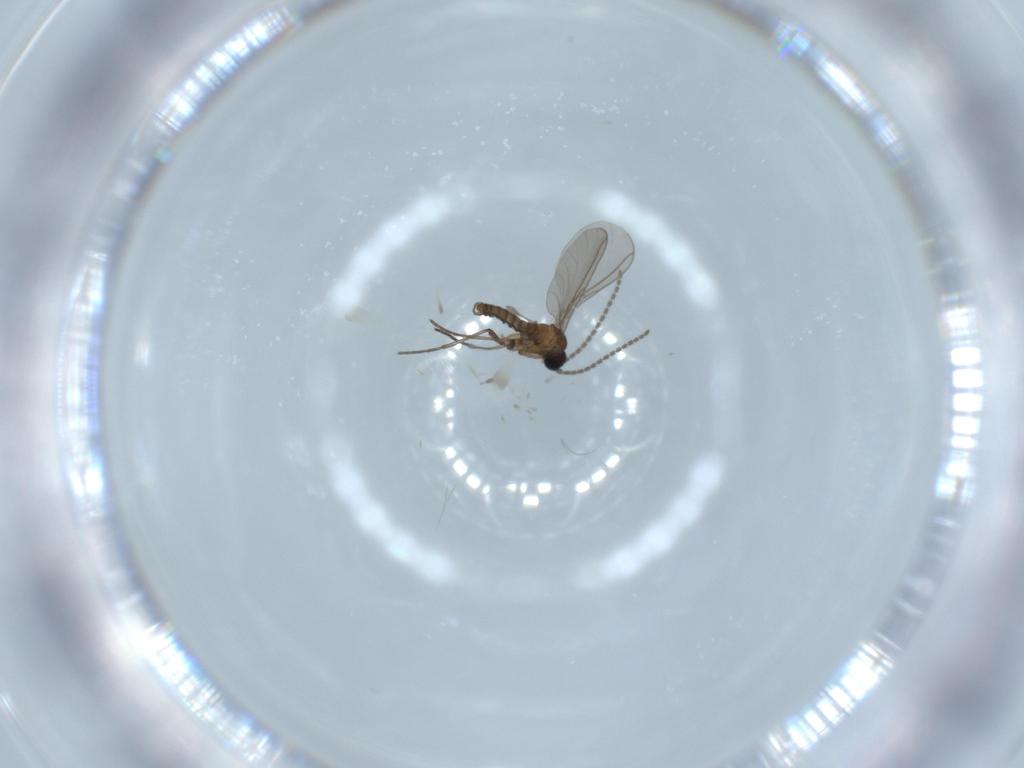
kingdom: Animalia
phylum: Arthropoda
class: Insecta
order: Diptera
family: Sciaridae
